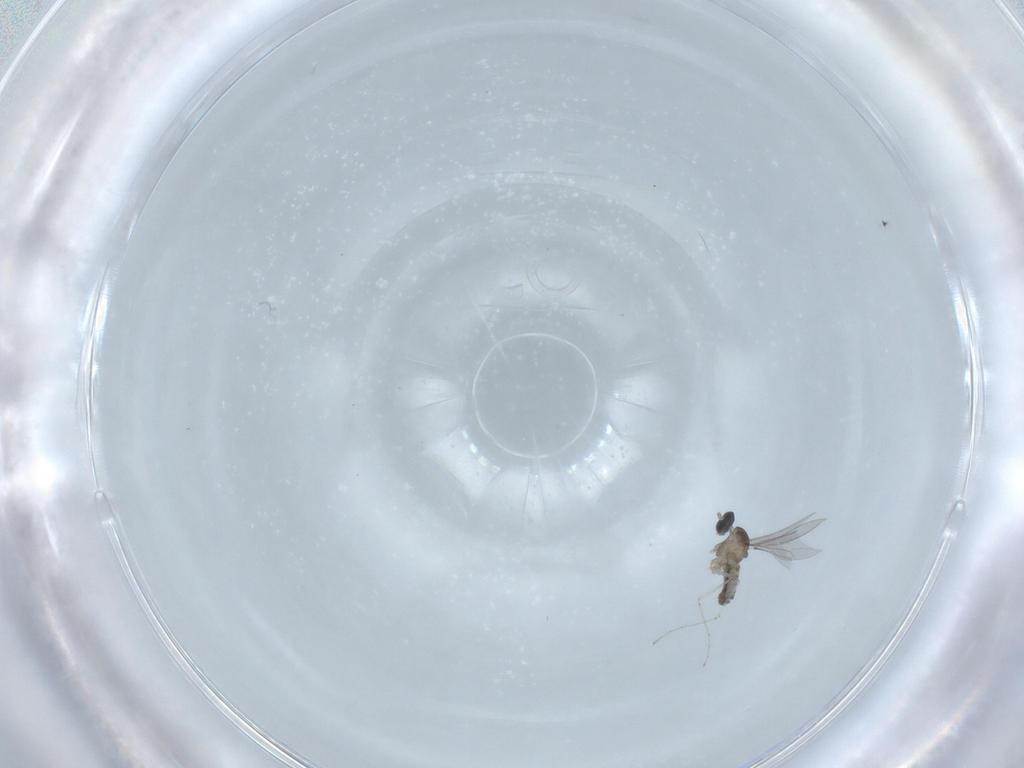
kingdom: Animalia
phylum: Arthropoda
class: Insecta
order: Diptera
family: Cecidomyiidae
